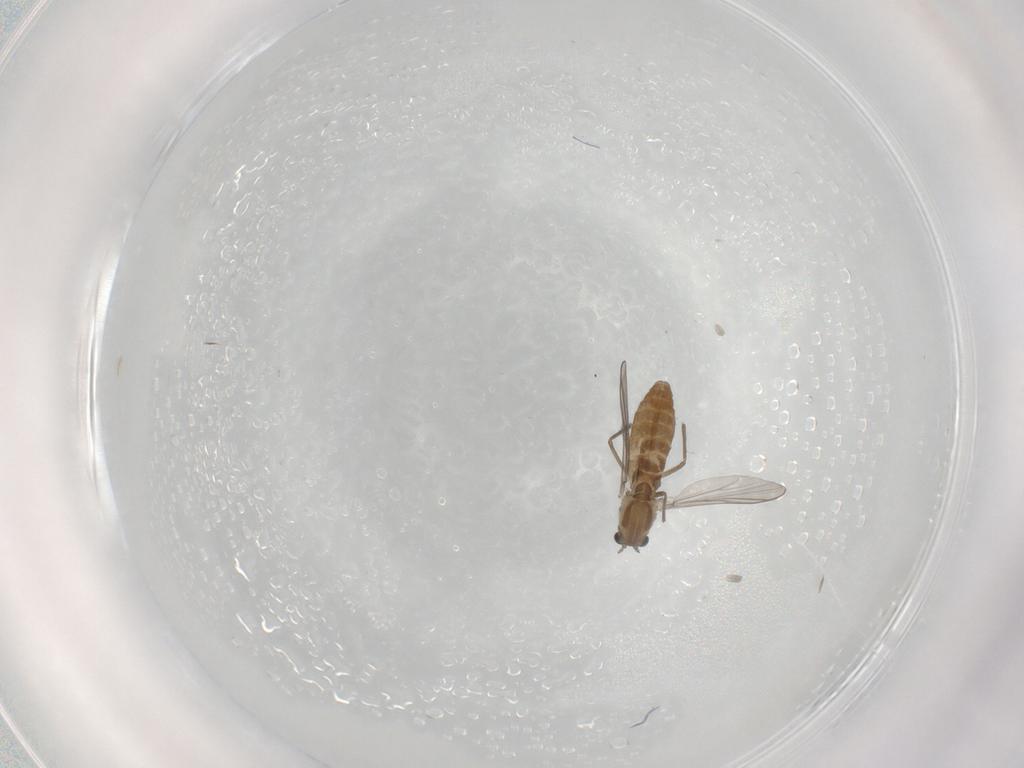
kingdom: Animalia
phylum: Arthropoda
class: Insecta
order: Diptera
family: Chironomidae
